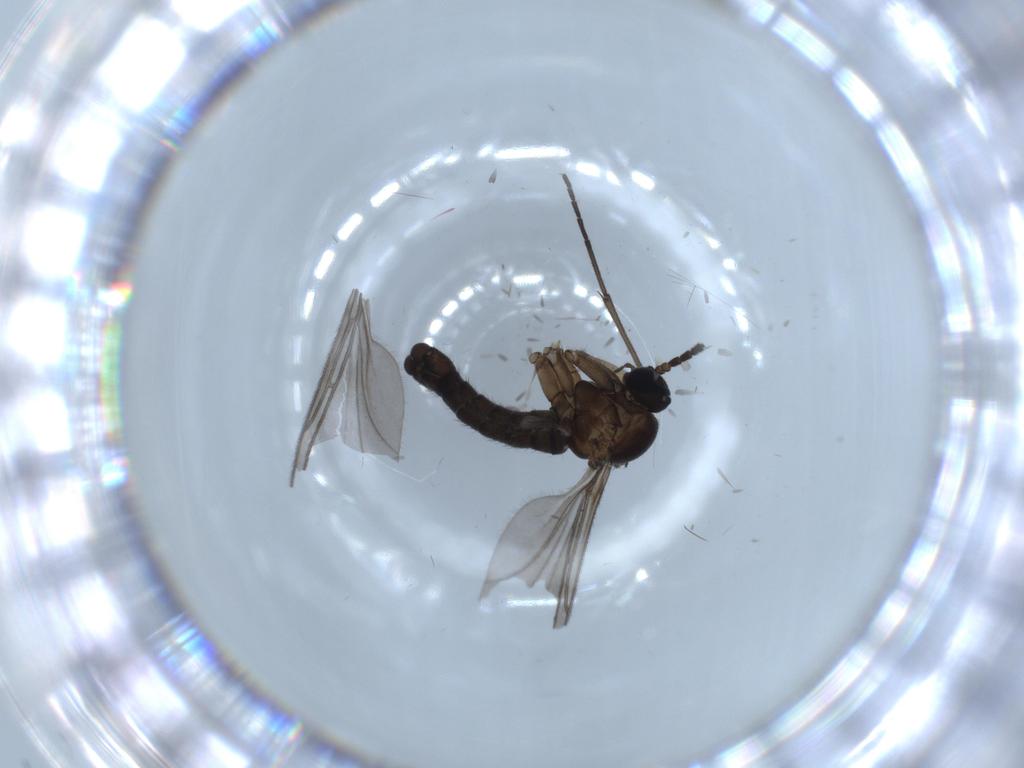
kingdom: Animalia
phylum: Arthropoda
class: Insecta
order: Diptera
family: Sciaridae
